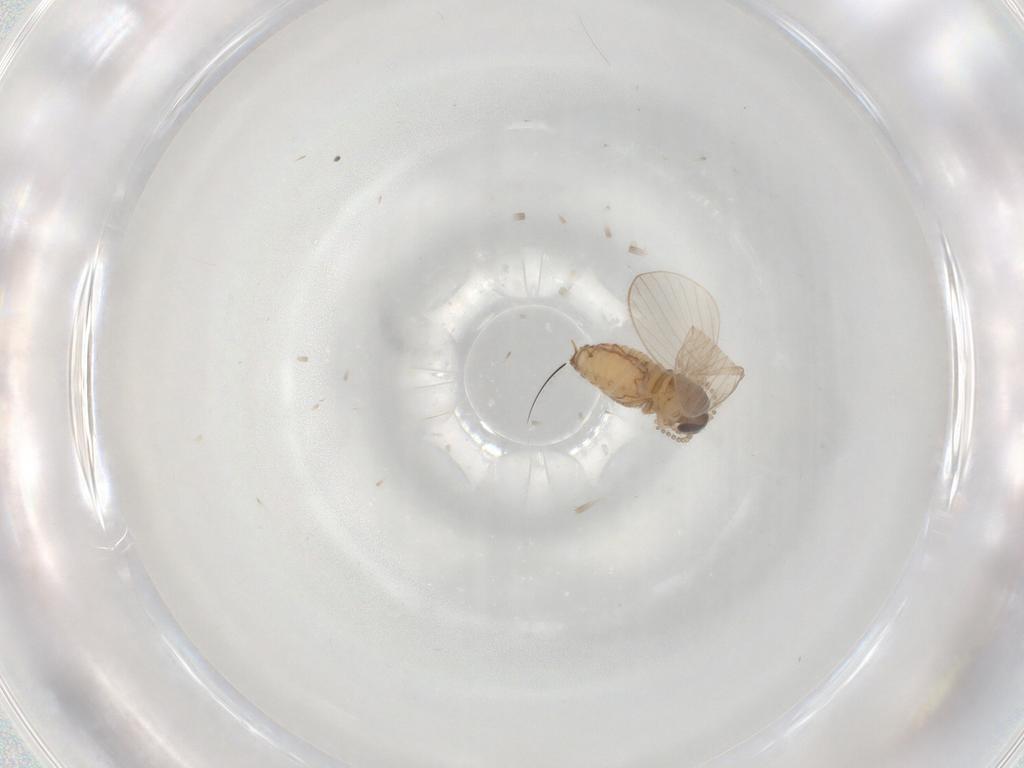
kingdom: Animalia
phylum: Arthropoda
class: Insecta
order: Diptera
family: Psychodidae
